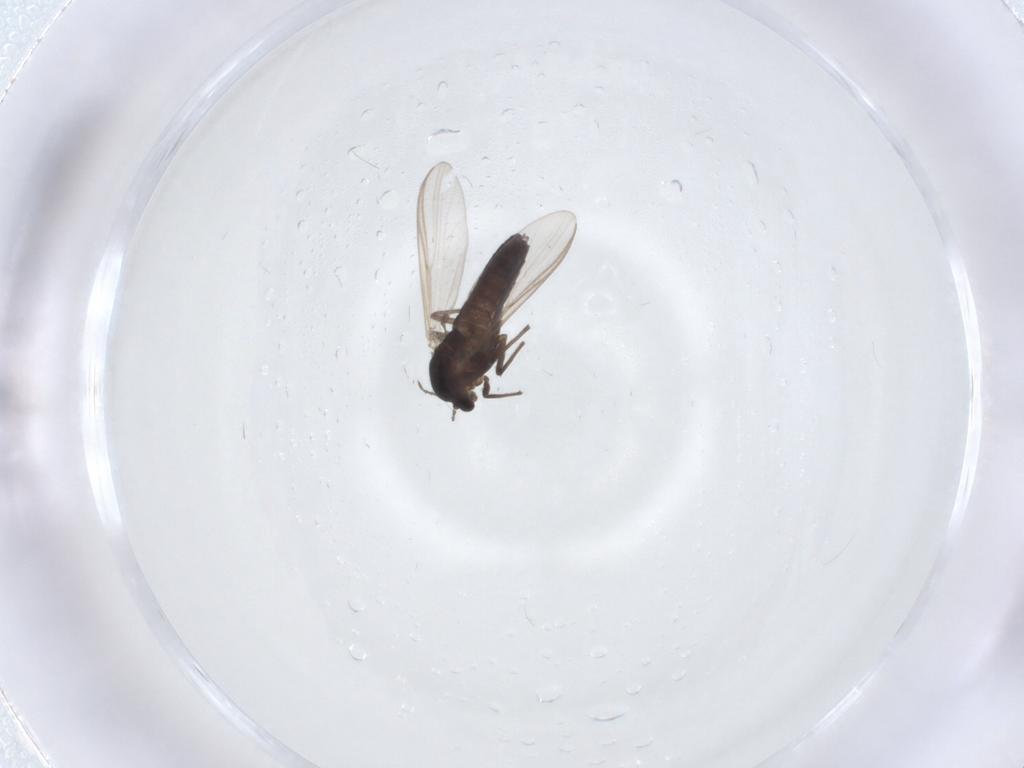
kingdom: Animalia
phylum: Arthropoda
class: Insecta
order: Diptera
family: Chironomidae
